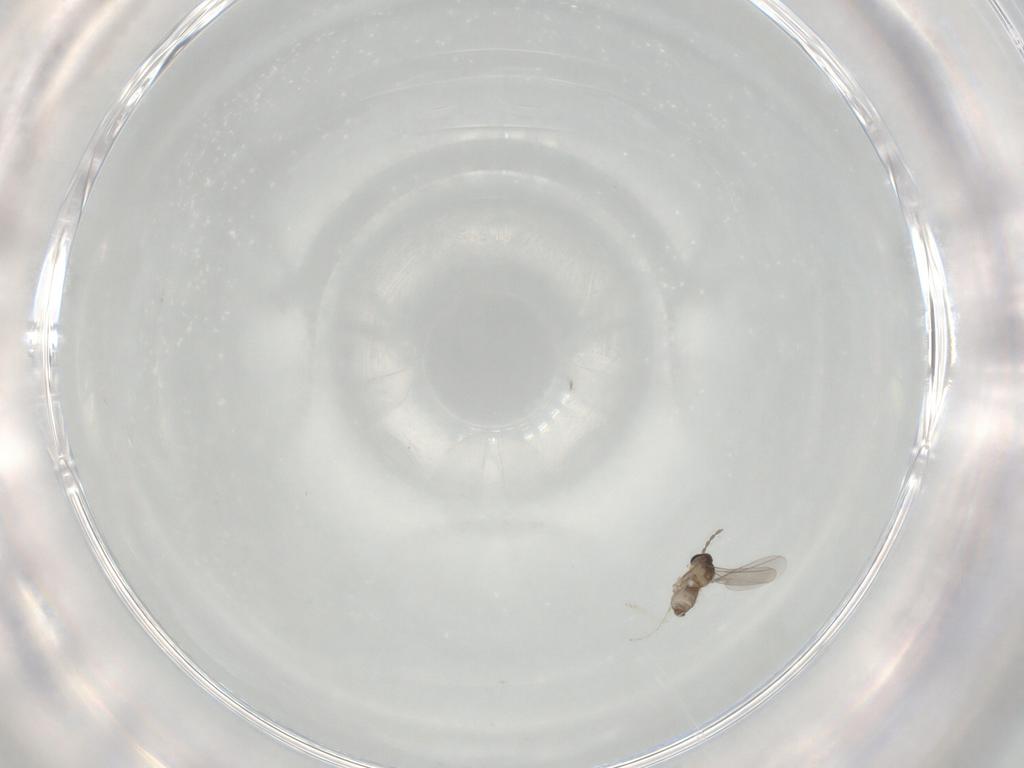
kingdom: Animalia
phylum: Arthropoda
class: Insecta
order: Diptera
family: Cecidomyiidae
